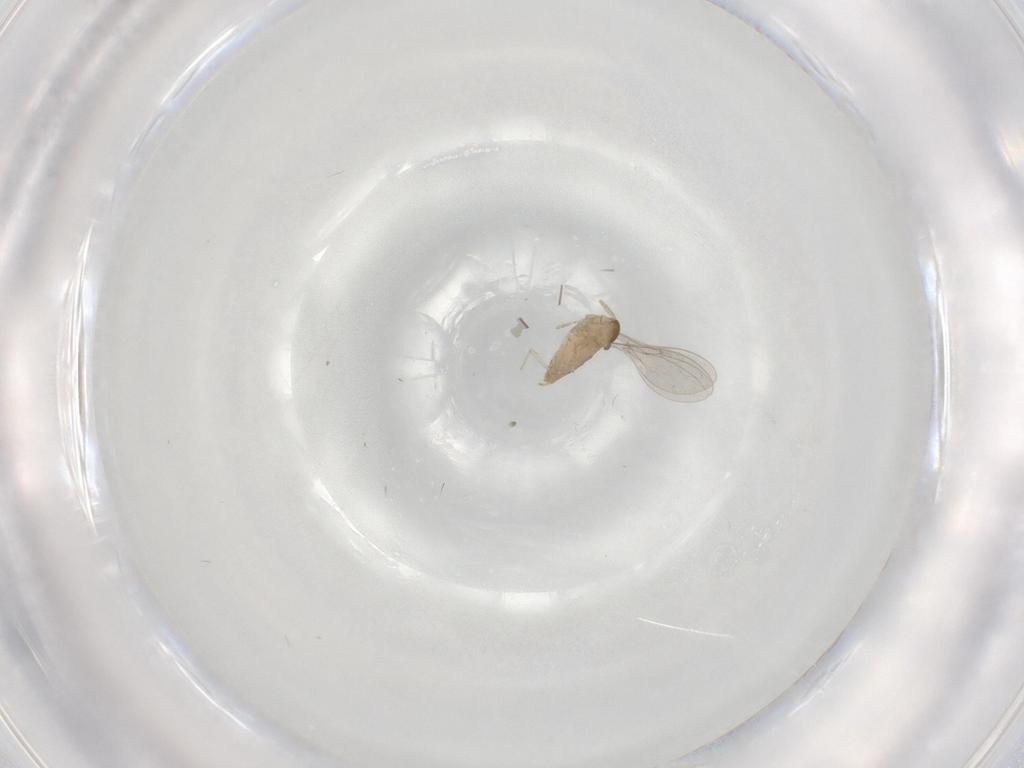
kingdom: Animalia
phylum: Arthropoda
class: Insecta
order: Diptera
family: Cecidomyiidae
